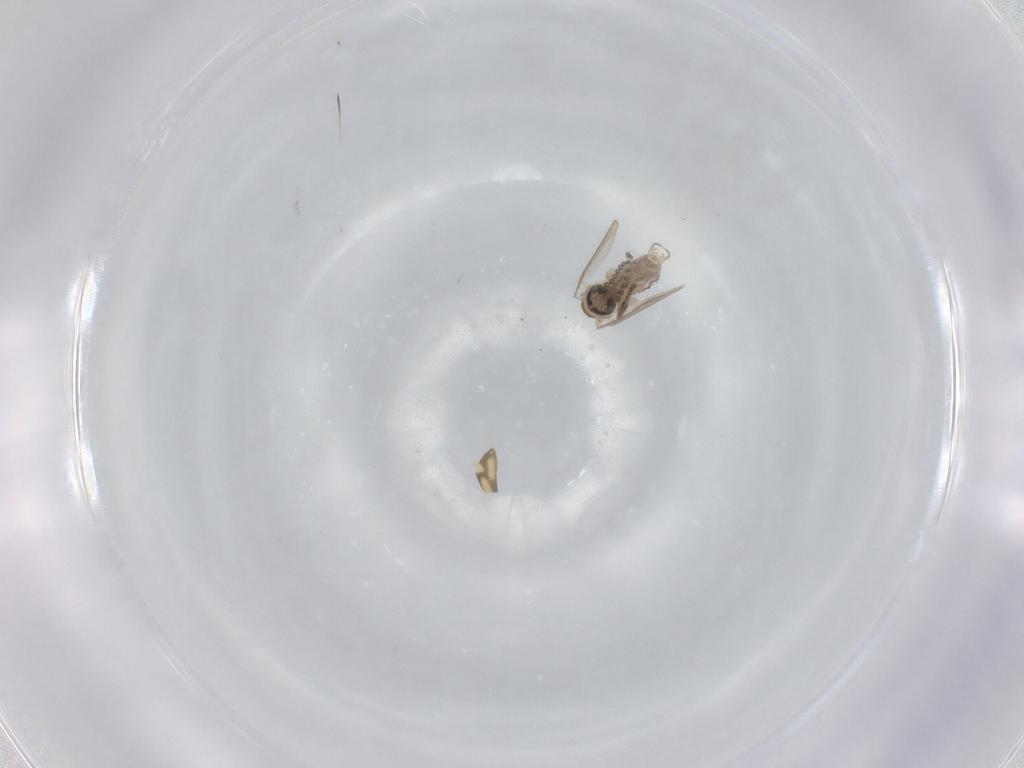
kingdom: Animalia
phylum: Arthropoda
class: Insecta
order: Diptera
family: Psychodidae
